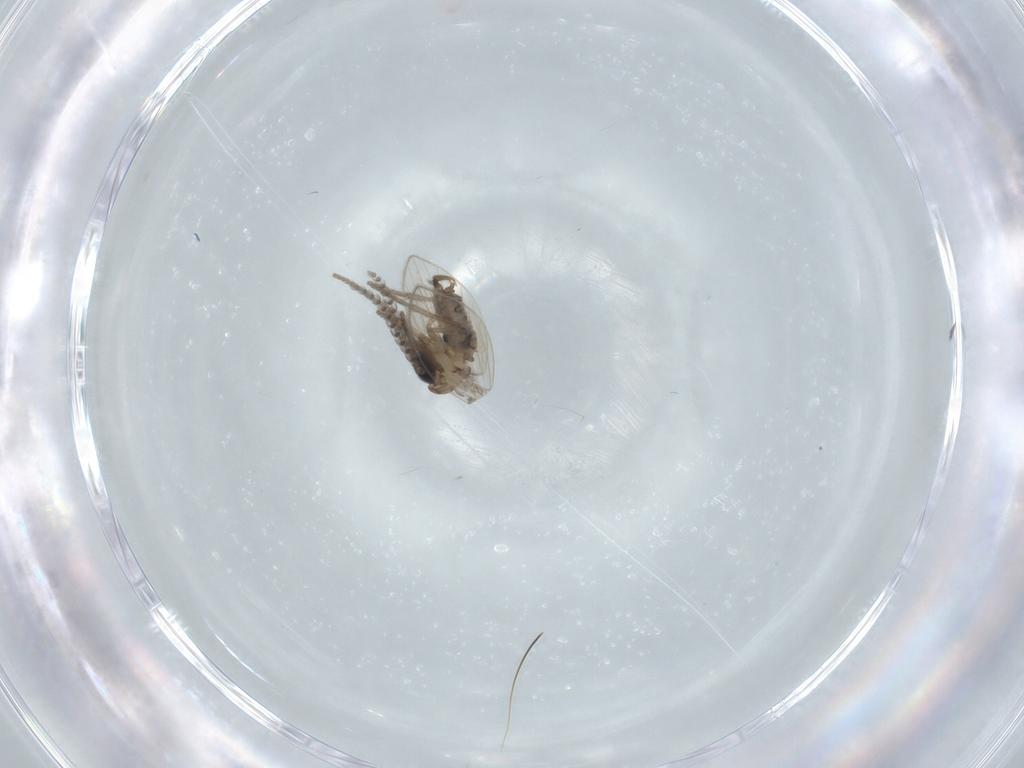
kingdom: Animalia
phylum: Arthropoda
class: Insecta
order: Diptera
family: Psychodidae
